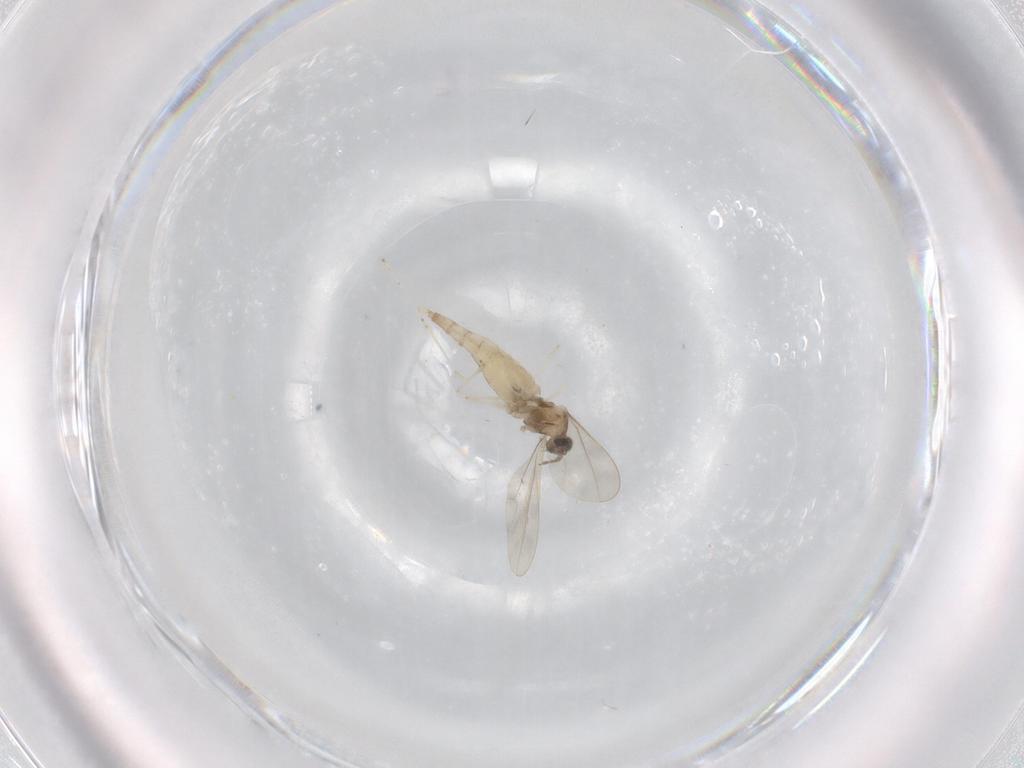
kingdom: Animalia
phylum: Arthropoda
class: Insecta
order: Diptera
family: Cecidomyiidae
